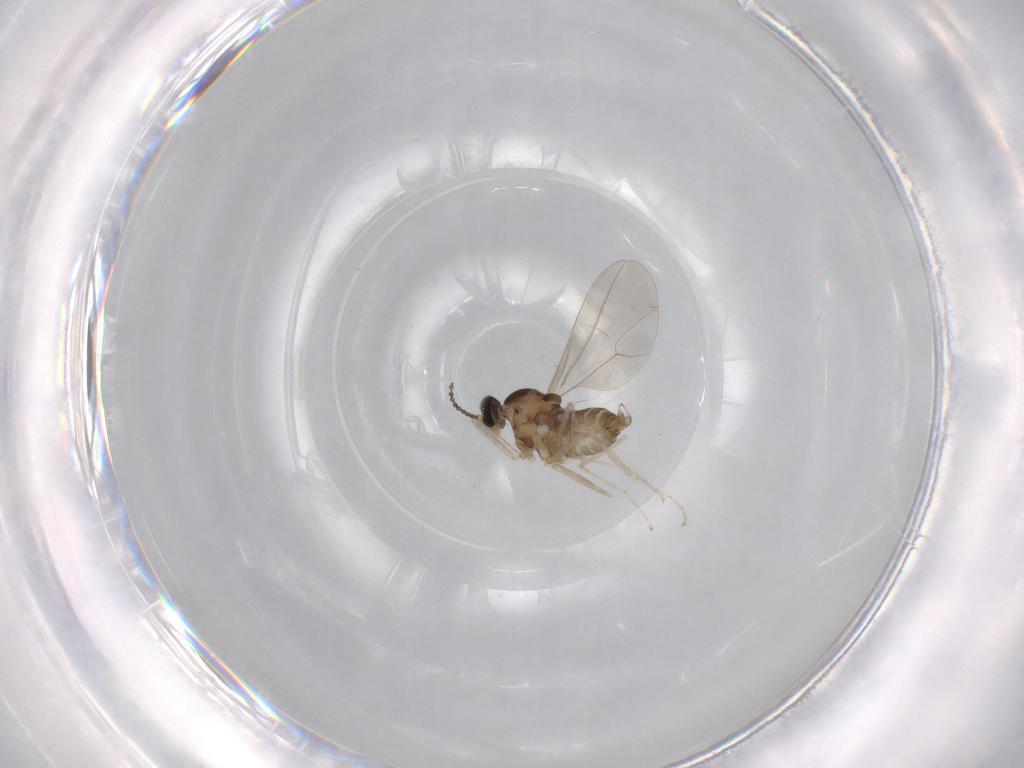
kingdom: Animalia
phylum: Arthropoda
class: Insecta
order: Diptera
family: Cecidomyiidae
